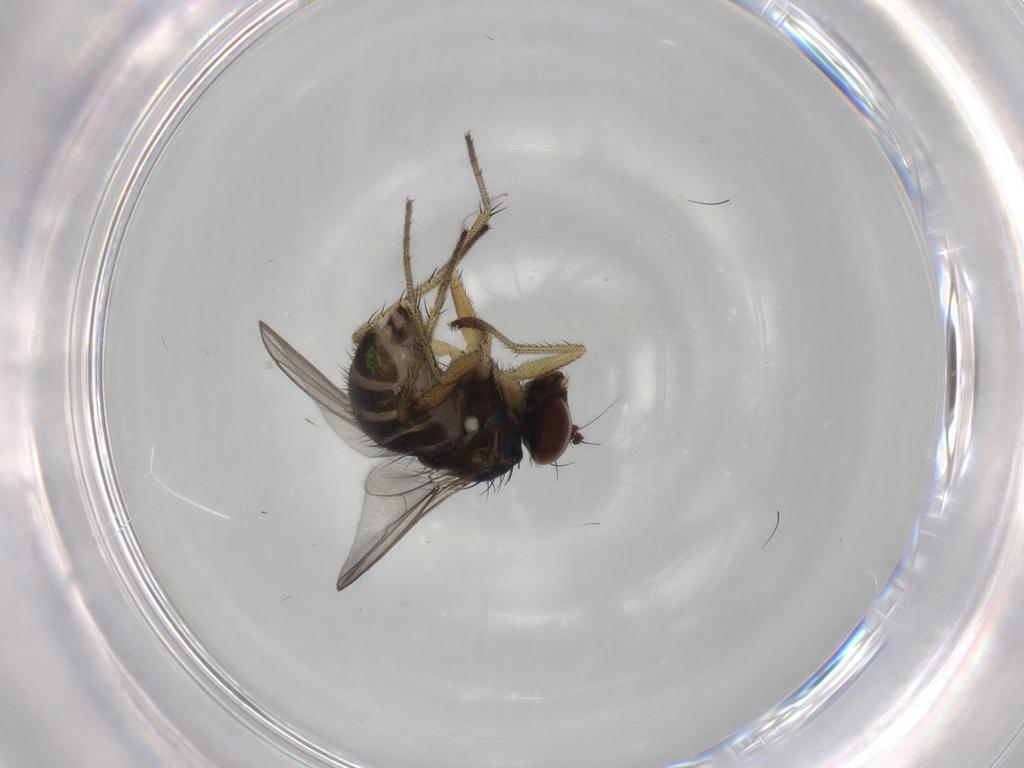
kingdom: Animalia
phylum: Arthropoda
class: Insecta
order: Diptera
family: Dolichopodidae
